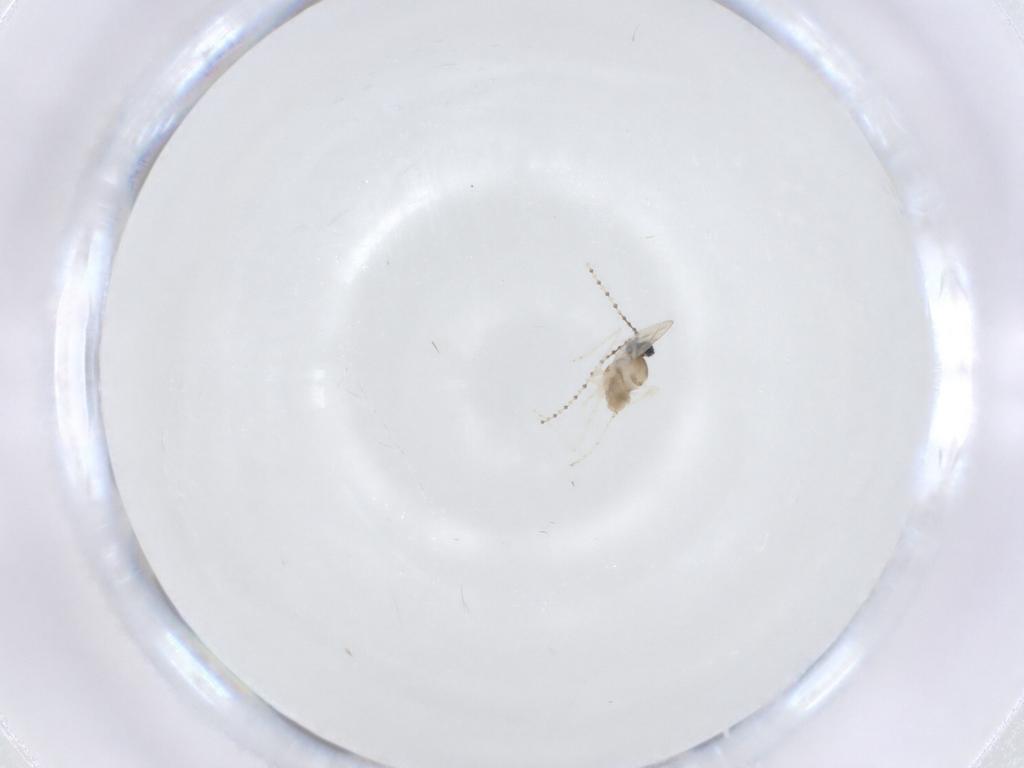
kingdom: Animalia
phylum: Arthropoda
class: Insecta
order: Diptera
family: Cecidomyiidae
